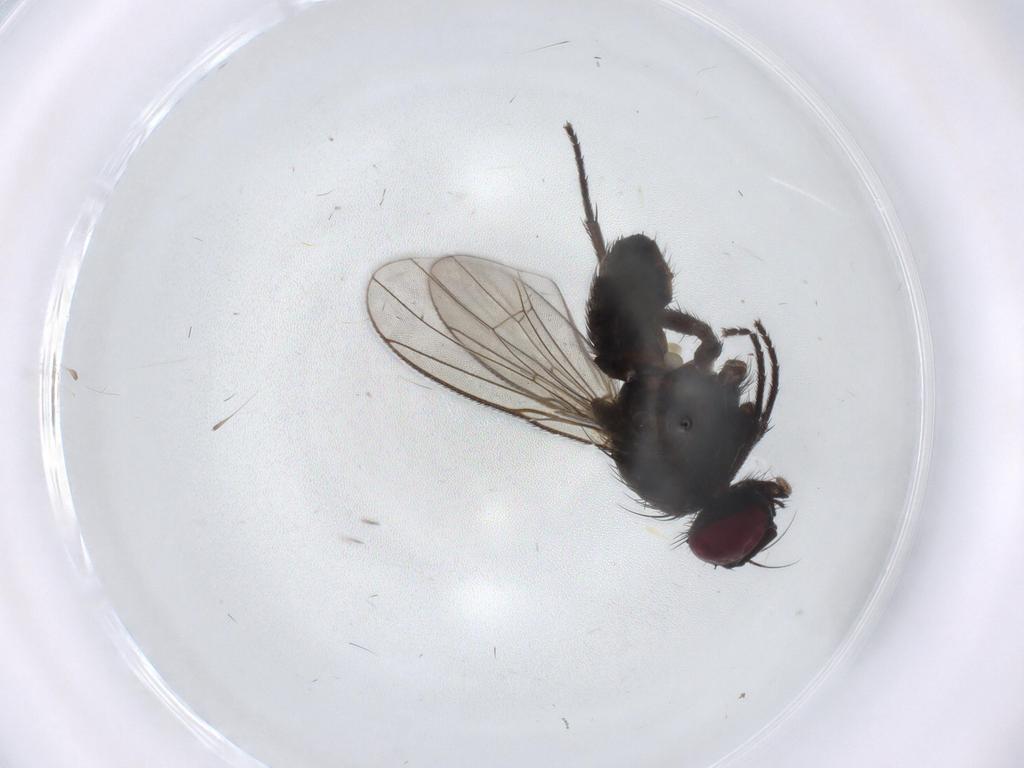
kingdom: Animalia
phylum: Arthropoda
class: Insecta
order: Diptera
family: Muscidae
